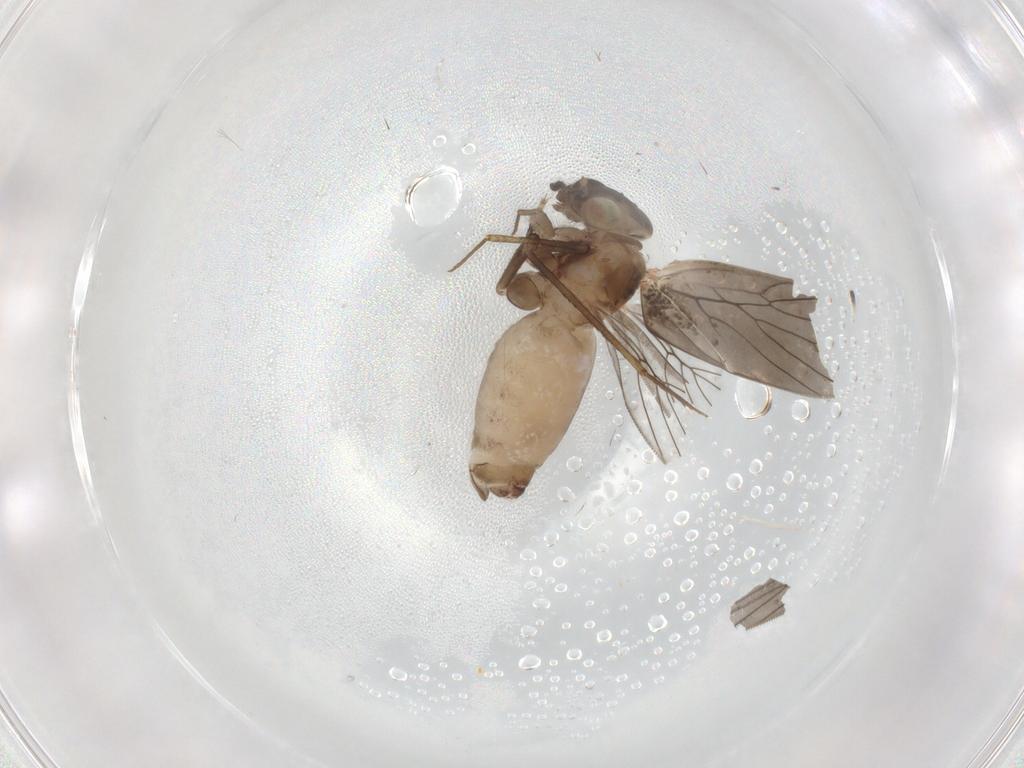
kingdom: Animalia
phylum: Arthropoda
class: Insecta
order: Psocodea
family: Lepidopsocidae
